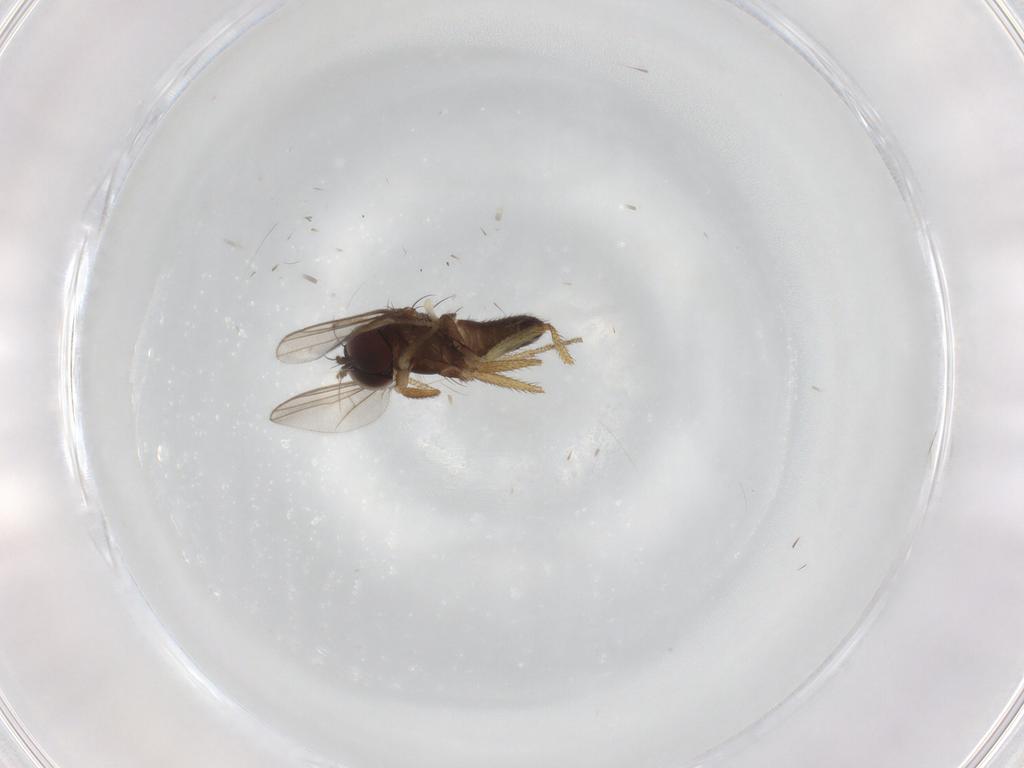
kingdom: Animalia
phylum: Arthropoda
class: Insecta
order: Diptera
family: Dolichopodidae
